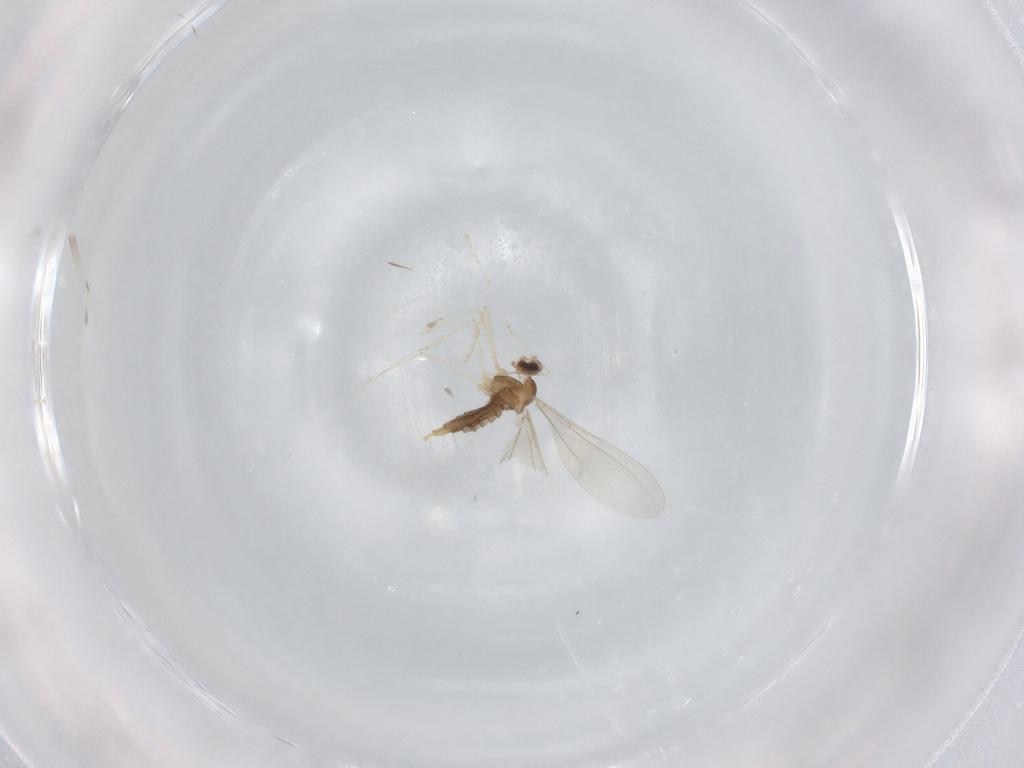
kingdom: Animalia
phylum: Arthropoda
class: Insecta
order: Diptera
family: Cecidomyiidae
